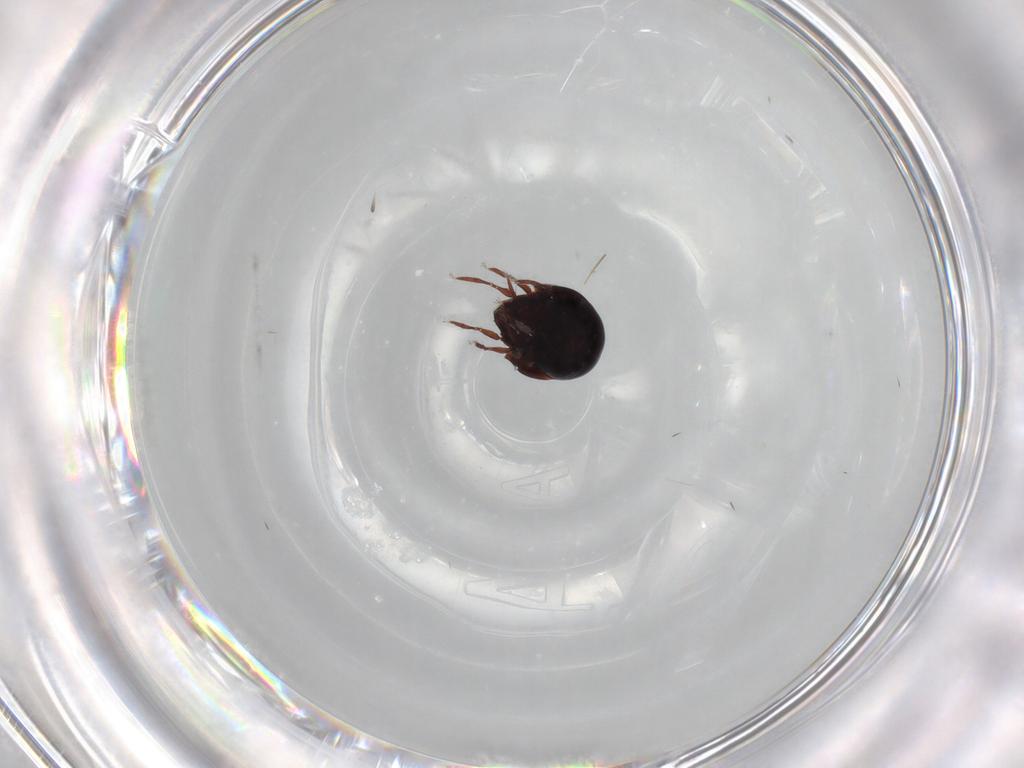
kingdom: Animalia
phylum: Arthropoda
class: Arachnida
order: Sarcoptiformes
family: Mochlozetidae
